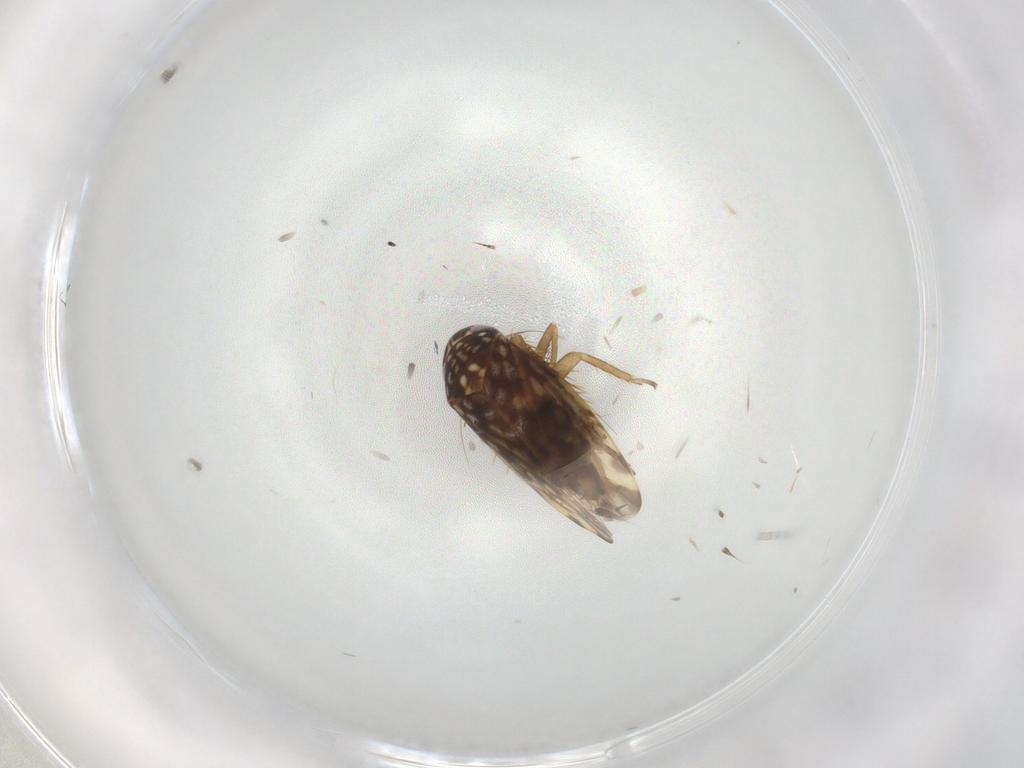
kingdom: Animalia
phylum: Arthropoda
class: Insecta
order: Hemiptera
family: Cicadellidae
